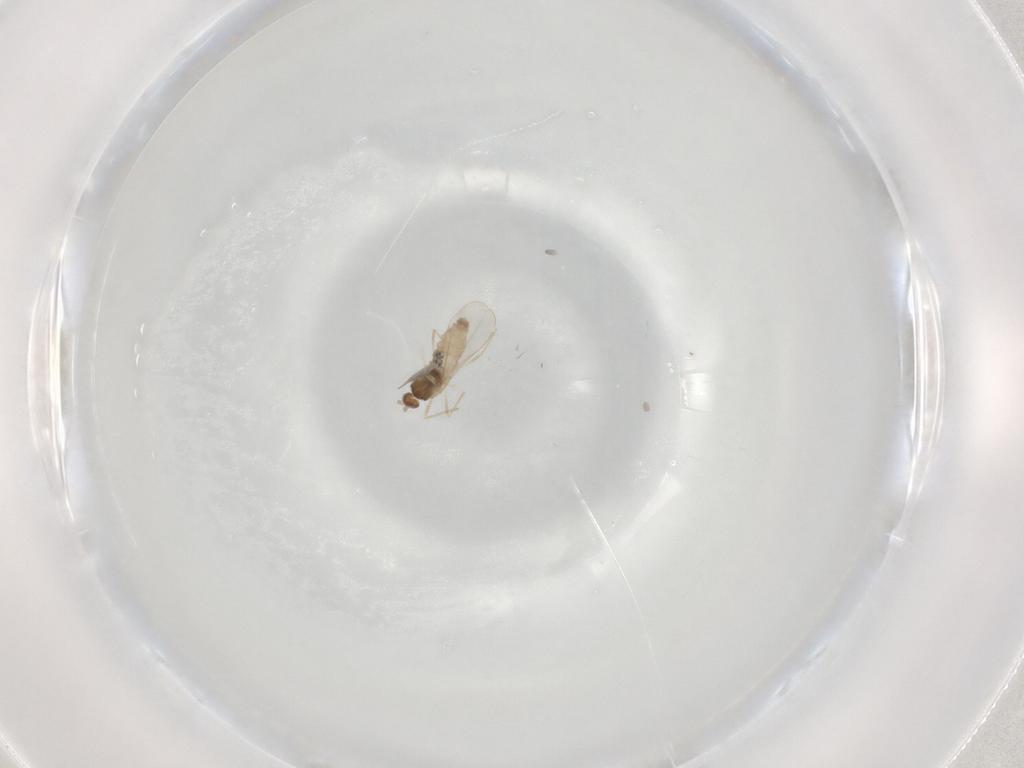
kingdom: Animalia
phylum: Arthropoda
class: Insecta
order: Diptera
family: Cecidomyiidae
